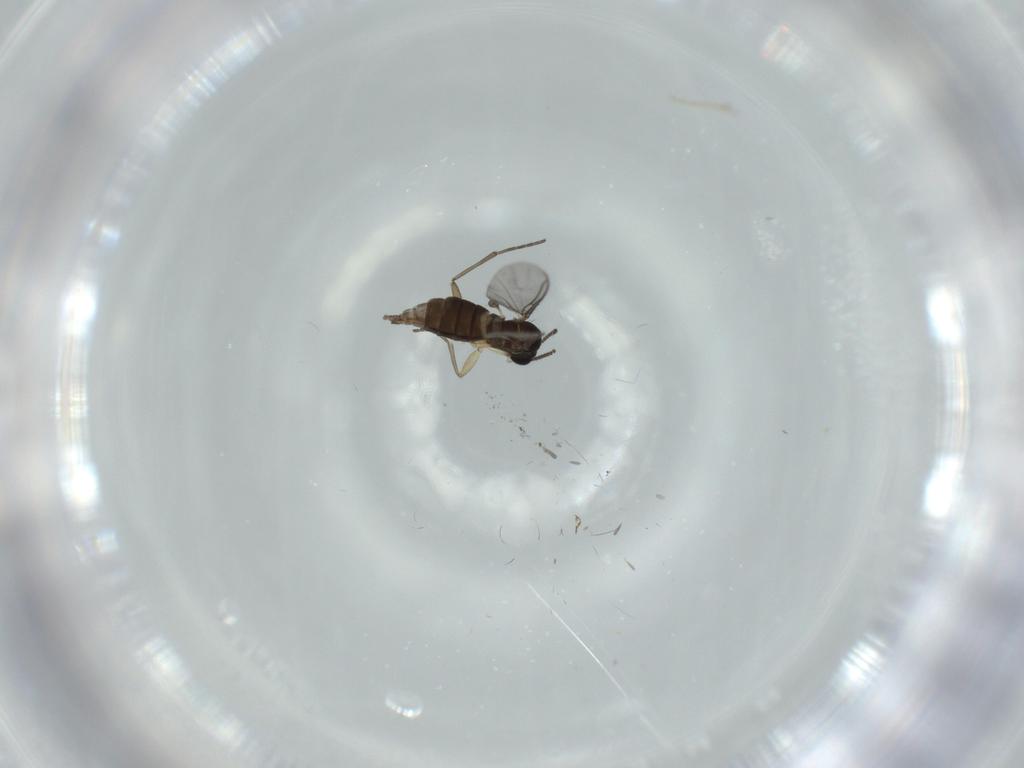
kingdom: Animalia
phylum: Arthropoda
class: Insecta
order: Diptera
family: Sciaridae
